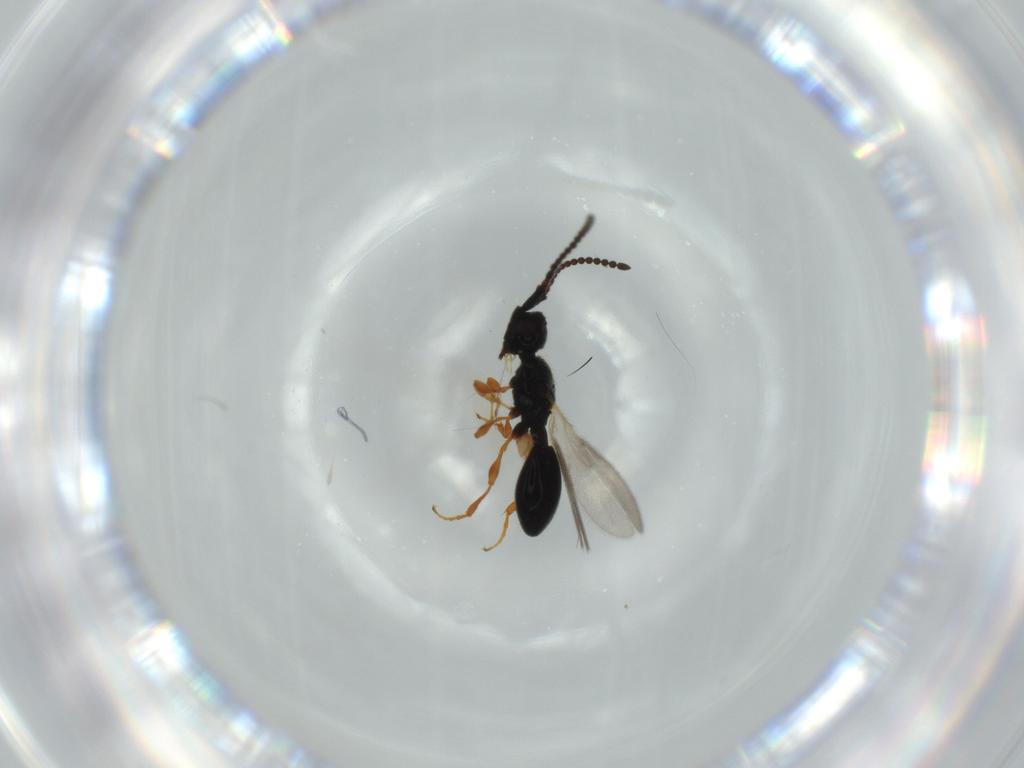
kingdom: Animalia
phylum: Arthropoda
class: Insecta
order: Hymenoptera
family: Diapriidae
